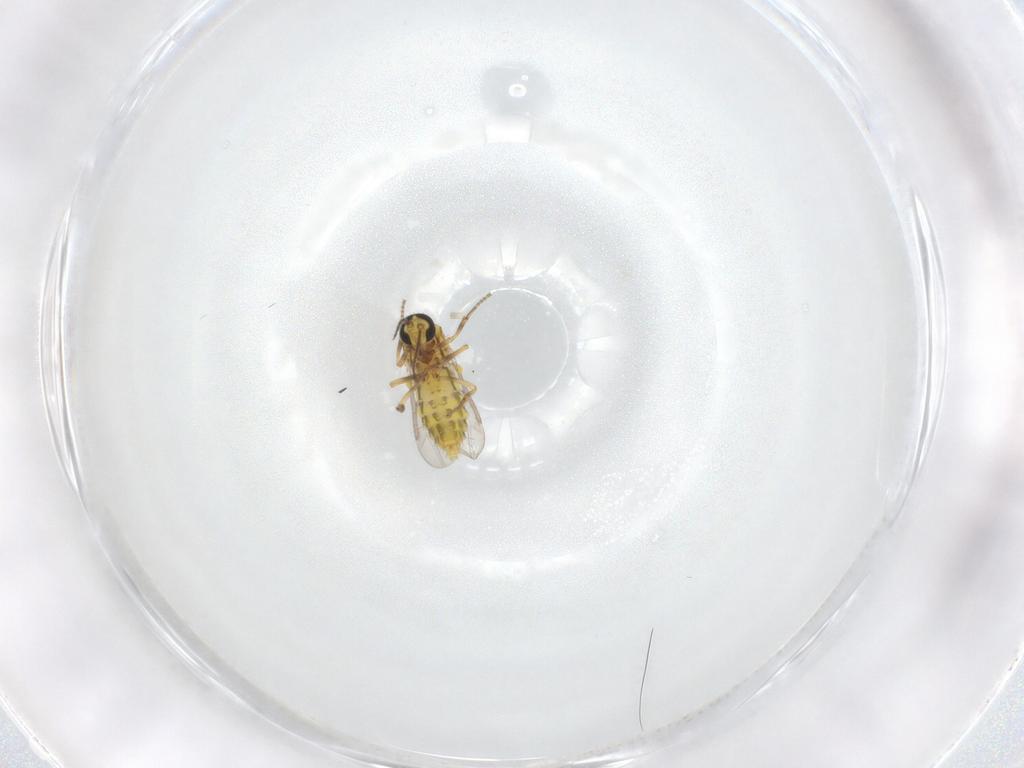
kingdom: Animalia
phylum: Arthropoda
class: Insecta
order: Diptera
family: Ceratopogonidae
